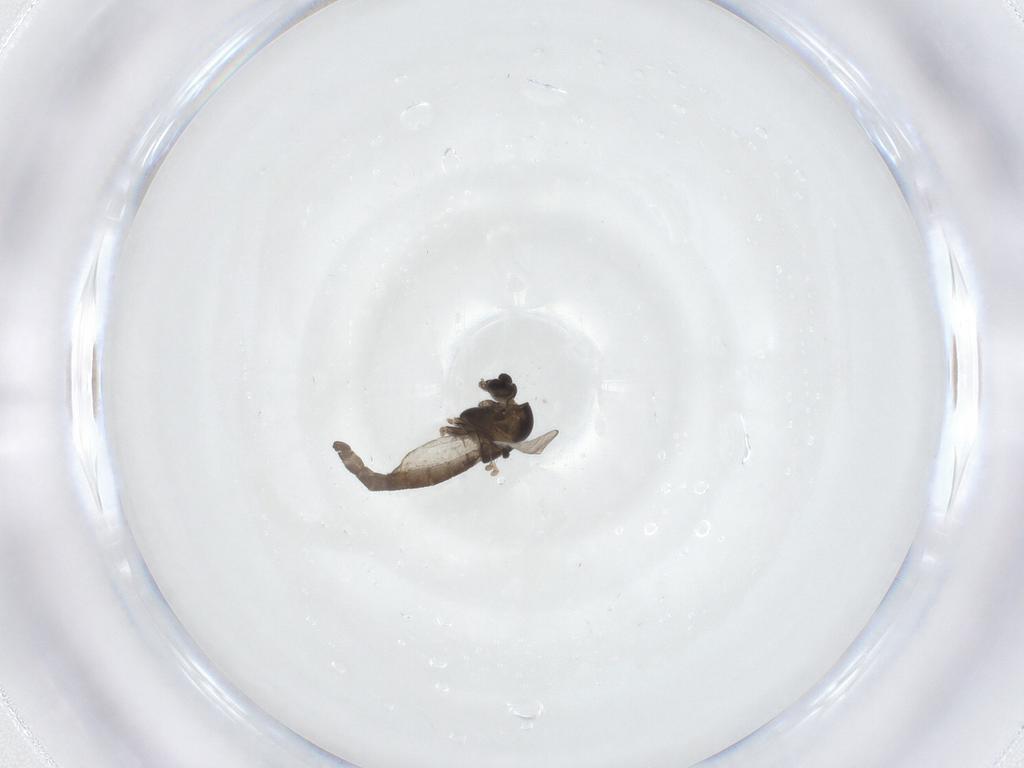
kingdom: Animalia
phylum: Arthropoda
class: Insecta
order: Diptera
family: Chironomidae
